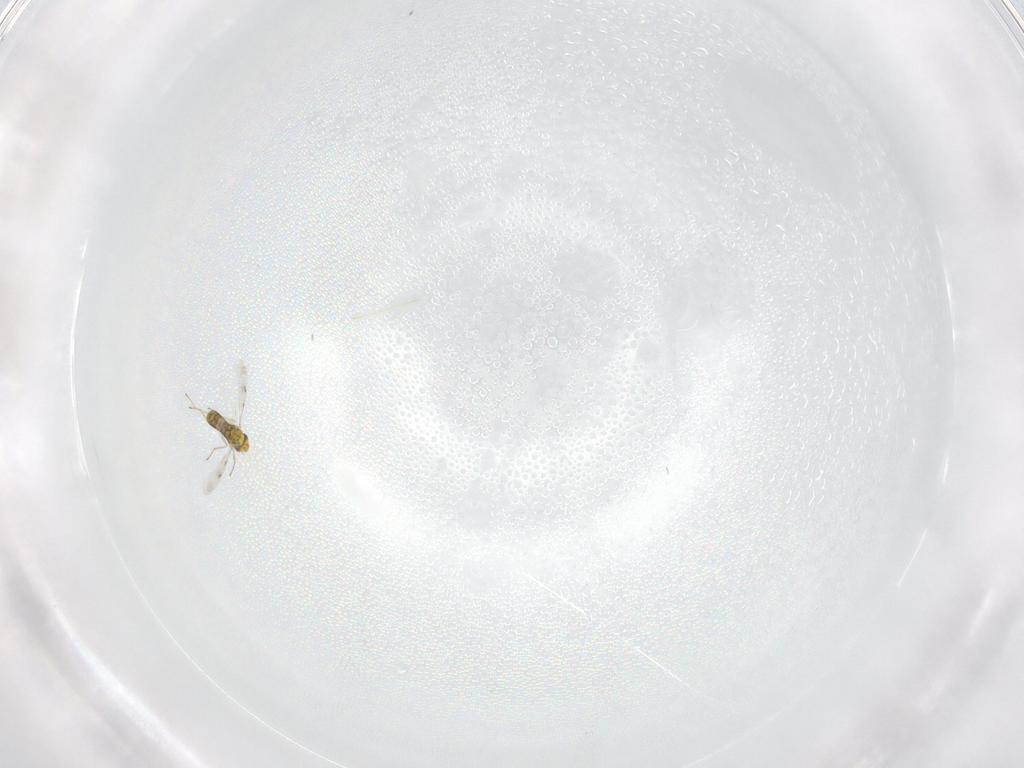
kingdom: Animalia
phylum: Arthropoda
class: Insecta
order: Hymenoptera
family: Eulophidae
